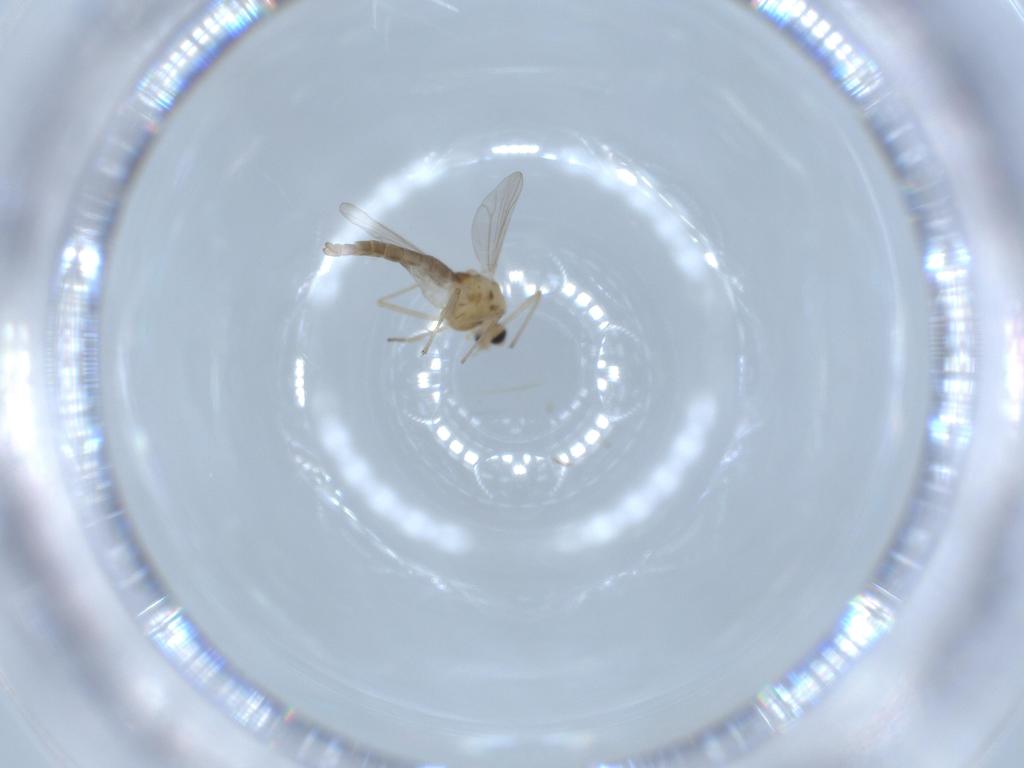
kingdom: Animalia
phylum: Arthropoda
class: Insecta
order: Diptera
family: Chironomidae
